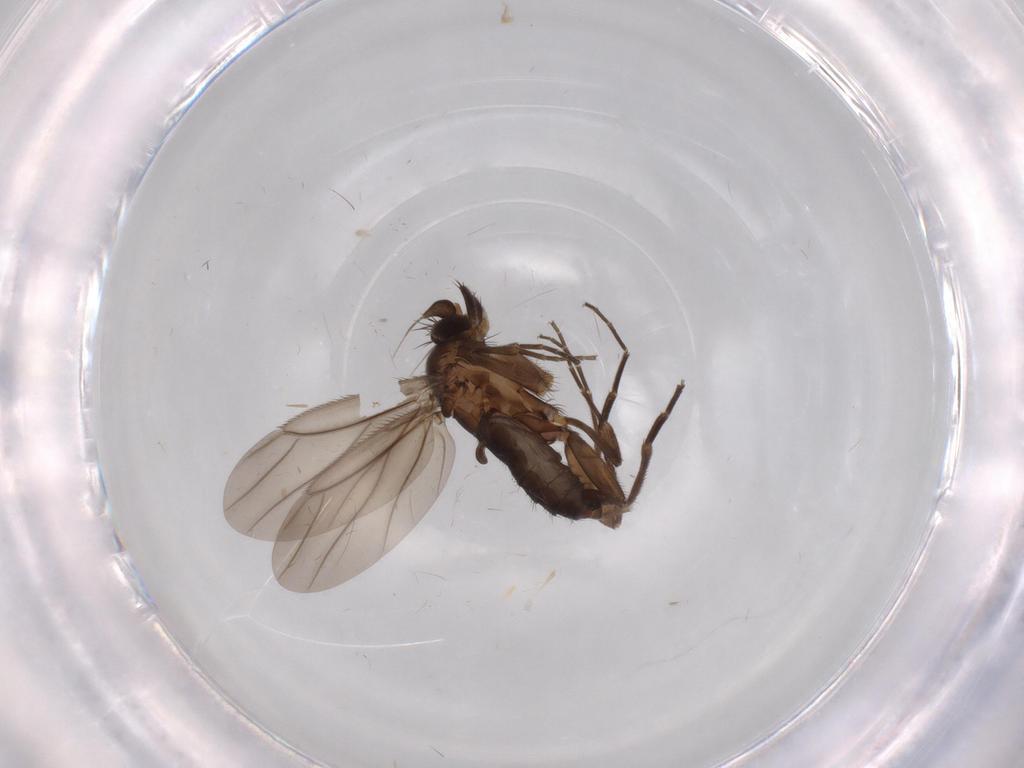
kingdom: Animalia
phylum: Arthropoda
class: Insecta
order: Diptera
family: Phoridae
